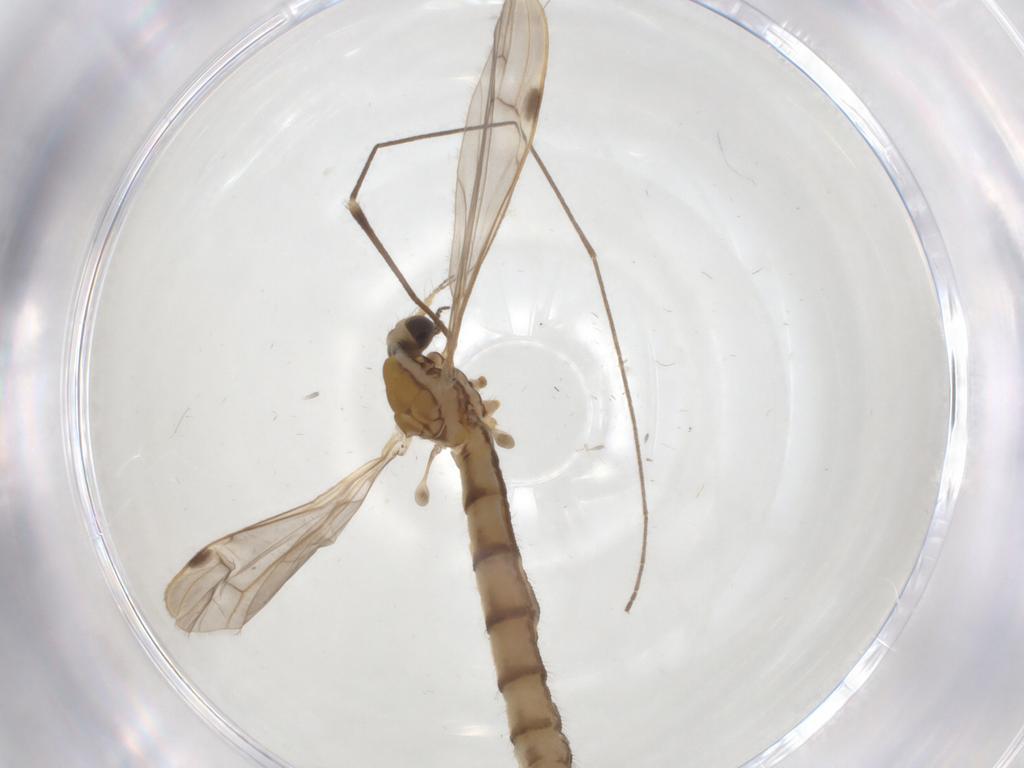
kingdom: Animalia
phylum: Arthropoda
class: Insecta
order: Diptera
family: Limoniidae
